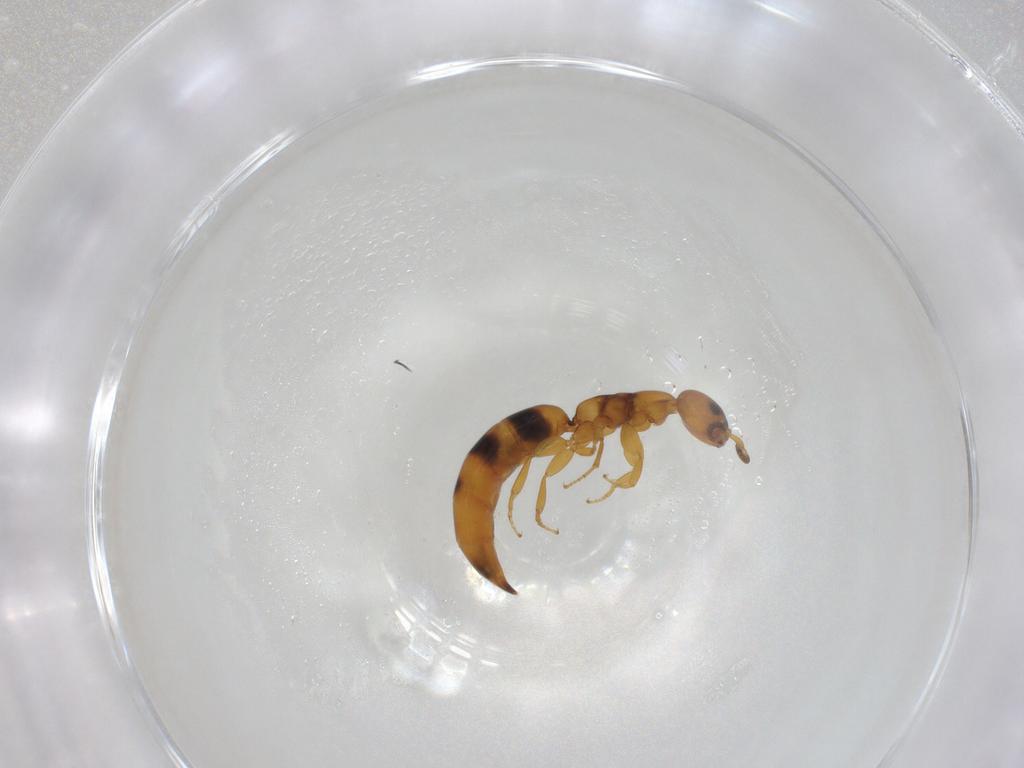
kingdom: Animalia
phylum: Arthropoda
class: Insecta
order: Hymenoptera
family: Bethylidae
